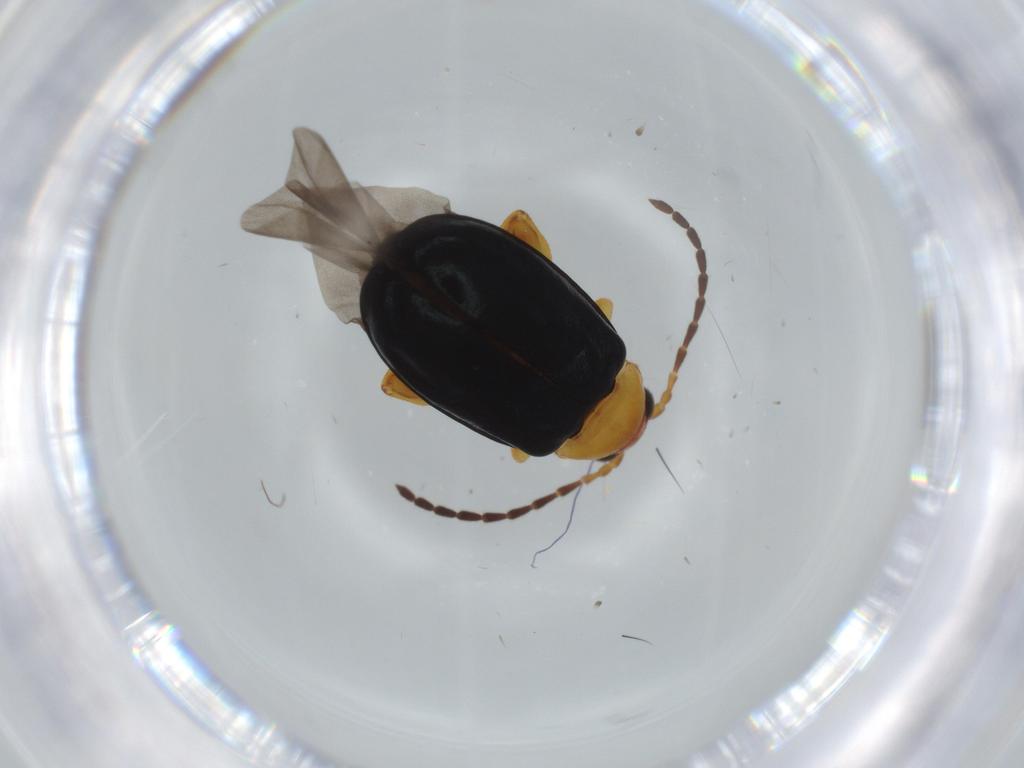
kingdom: Animalia
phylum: Arthropoda
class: Insecta
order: Coleoptera
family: Chrysomelidae
